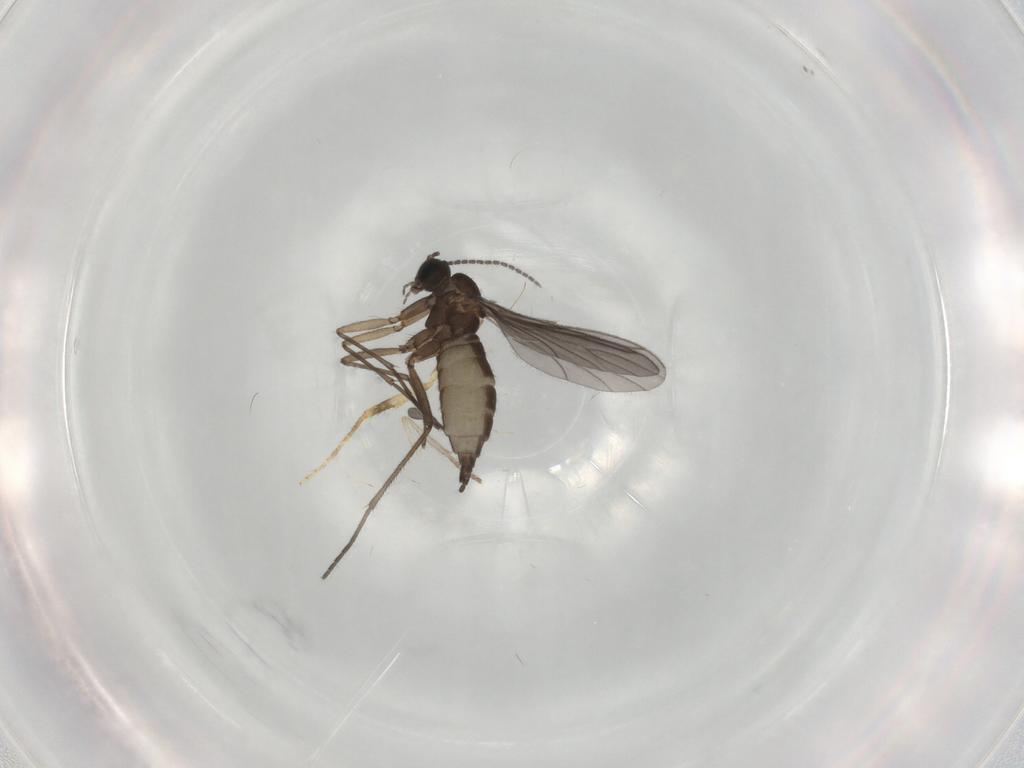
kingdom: Animalia
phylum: Arthropoda
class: Insecta
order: Diptera
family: Sciaridae
